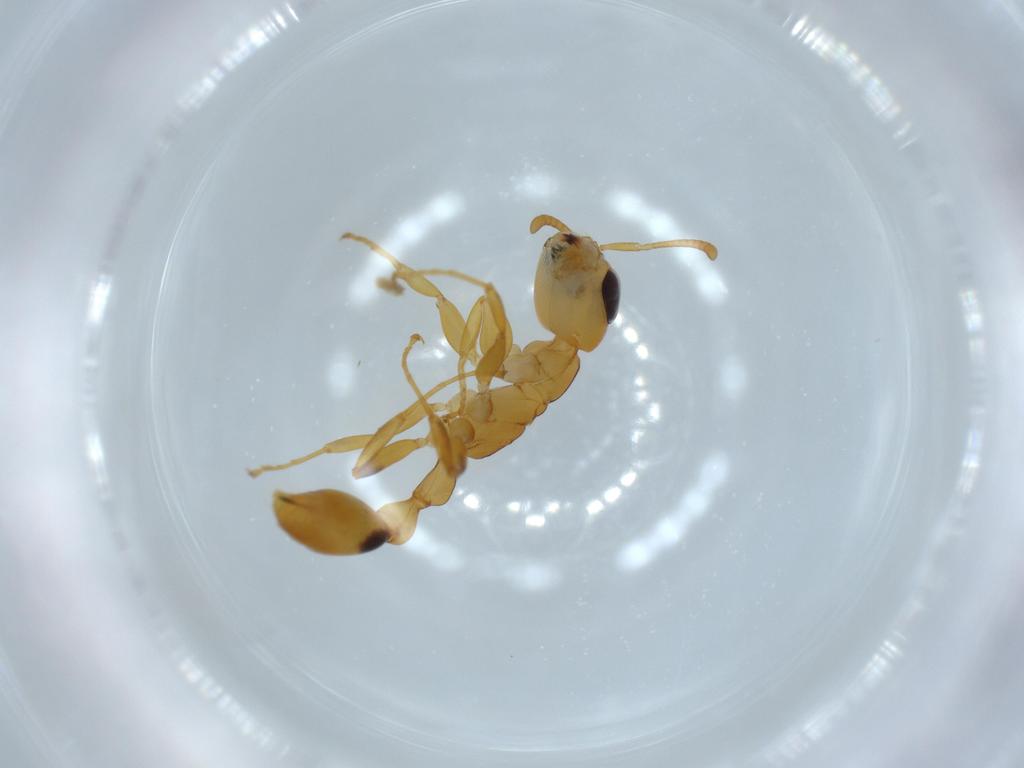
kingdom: Animalia
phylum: Arthropoda
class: Insecta
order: Hymenoptera
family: Formicidae
